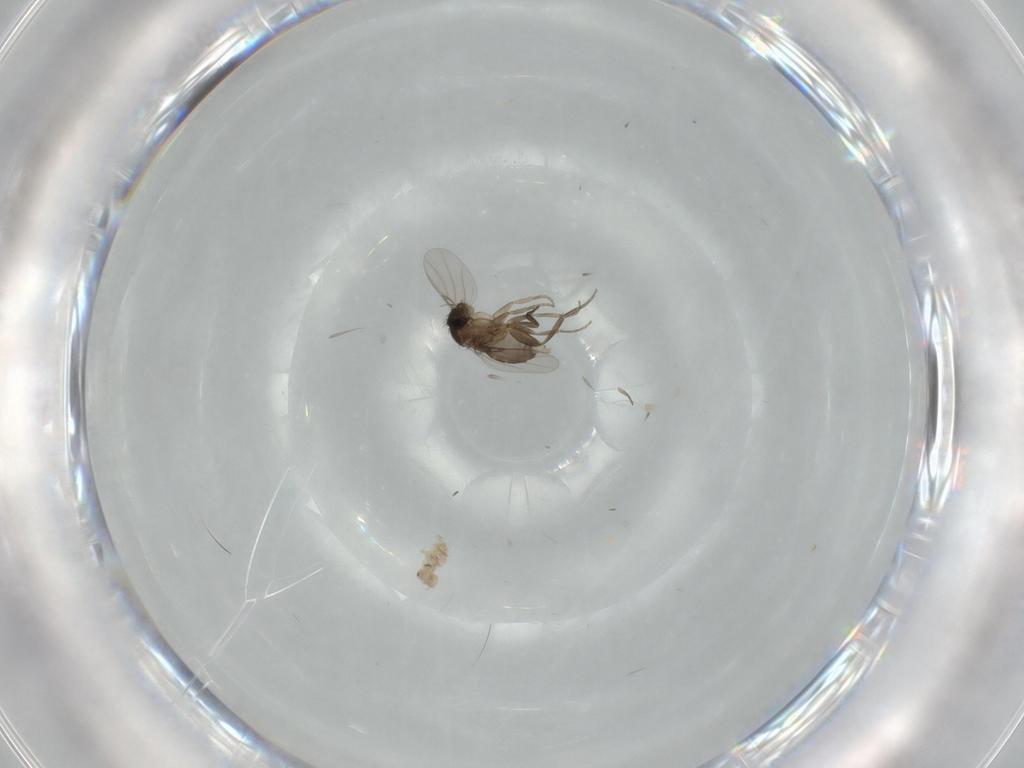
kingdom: Animalia
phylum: Arthropoda
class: Insecta
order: Diptera
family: Phoridae
